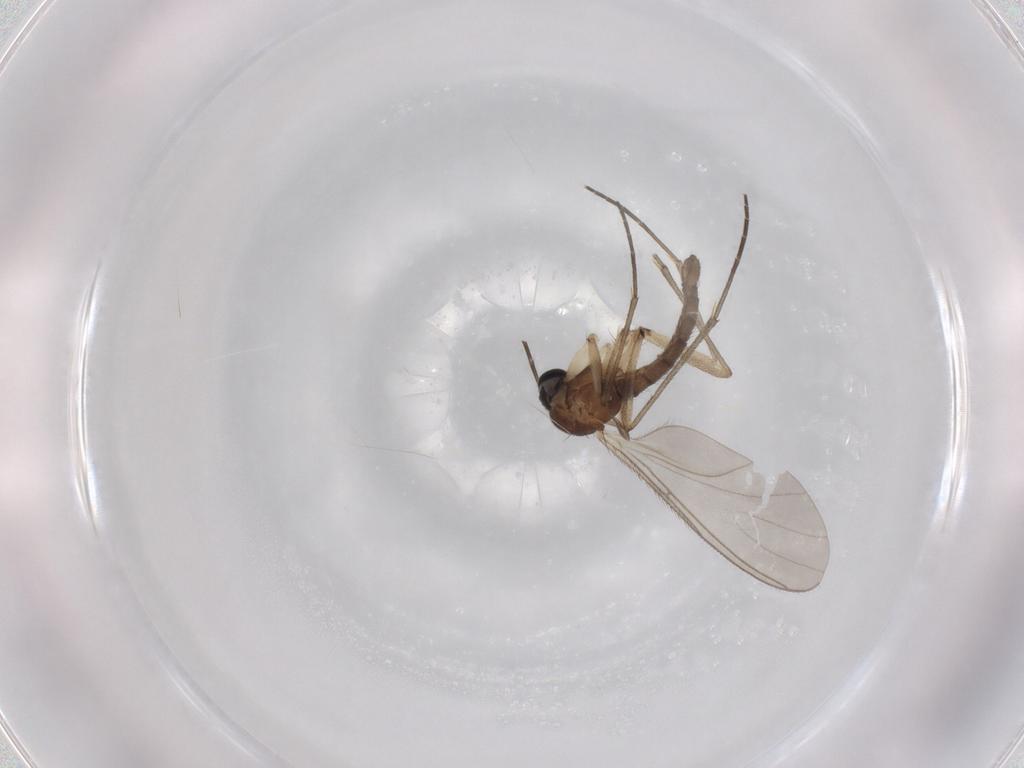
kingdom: Animalia
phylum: Arthropoda
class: Insecta
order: Diptera
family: Sciaridae
